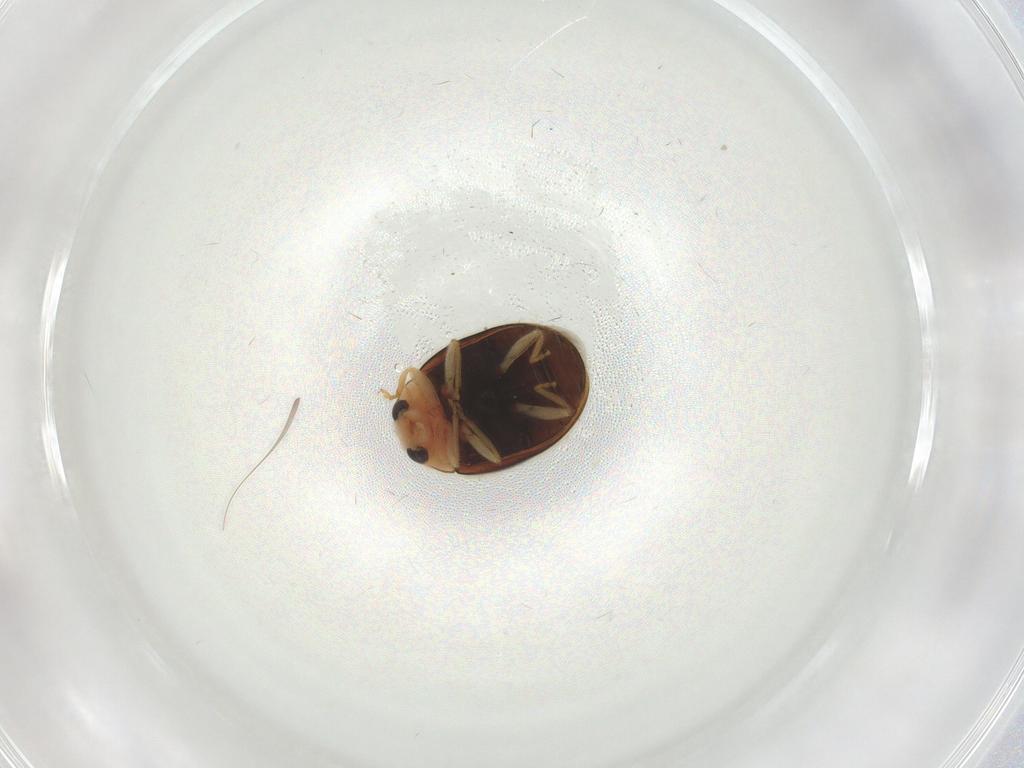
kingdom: Animalia
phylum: Arthropoda
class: Insecta
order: Coleoptera
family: Coccinellidae
